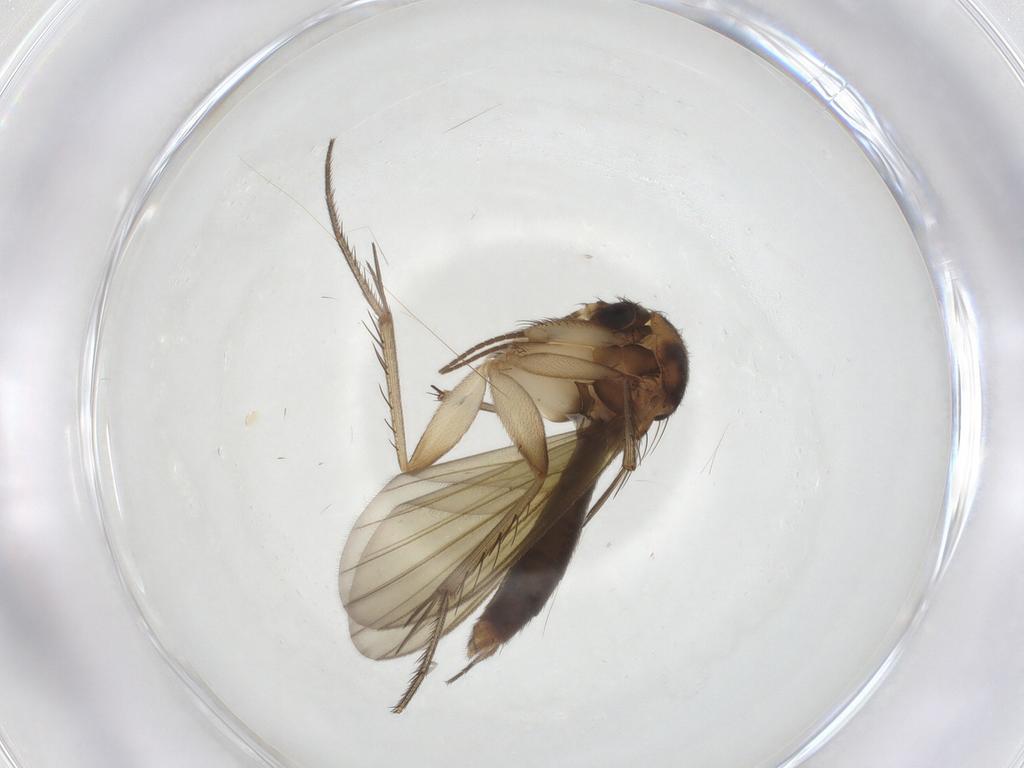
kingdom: Animalia
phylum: Arthropoda
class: Insecta
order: Diptera
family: Mycetophilidae
